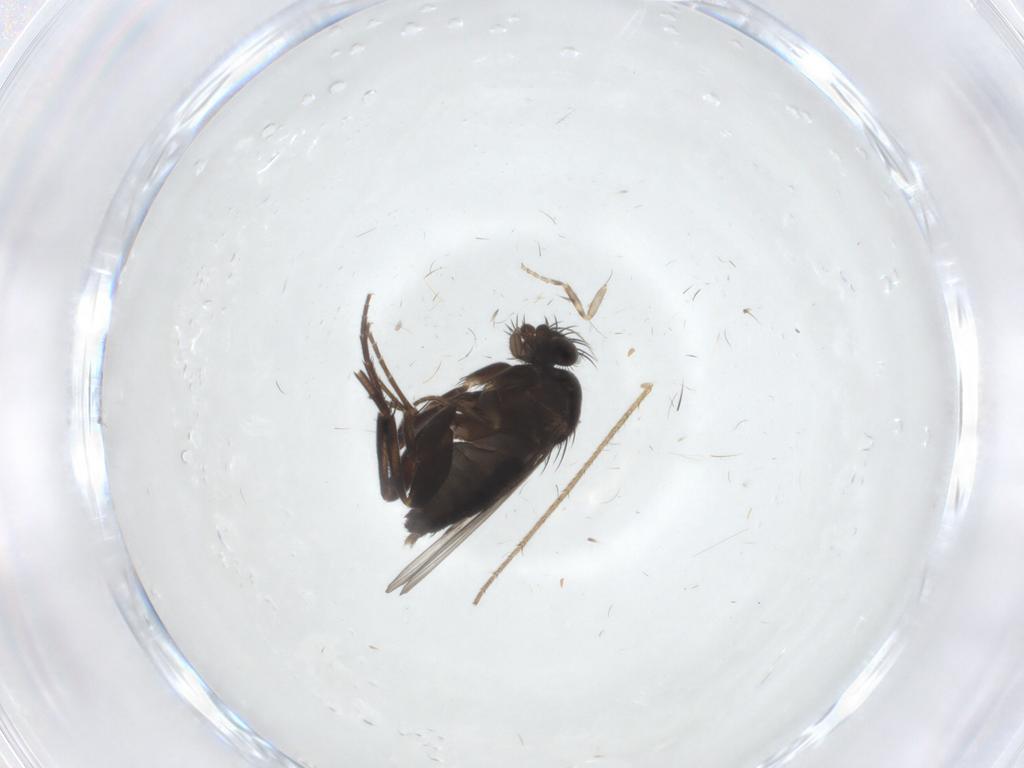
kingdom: Animalia
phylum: Arthropoda
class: Insecta
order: Diptera
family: Phoridae
